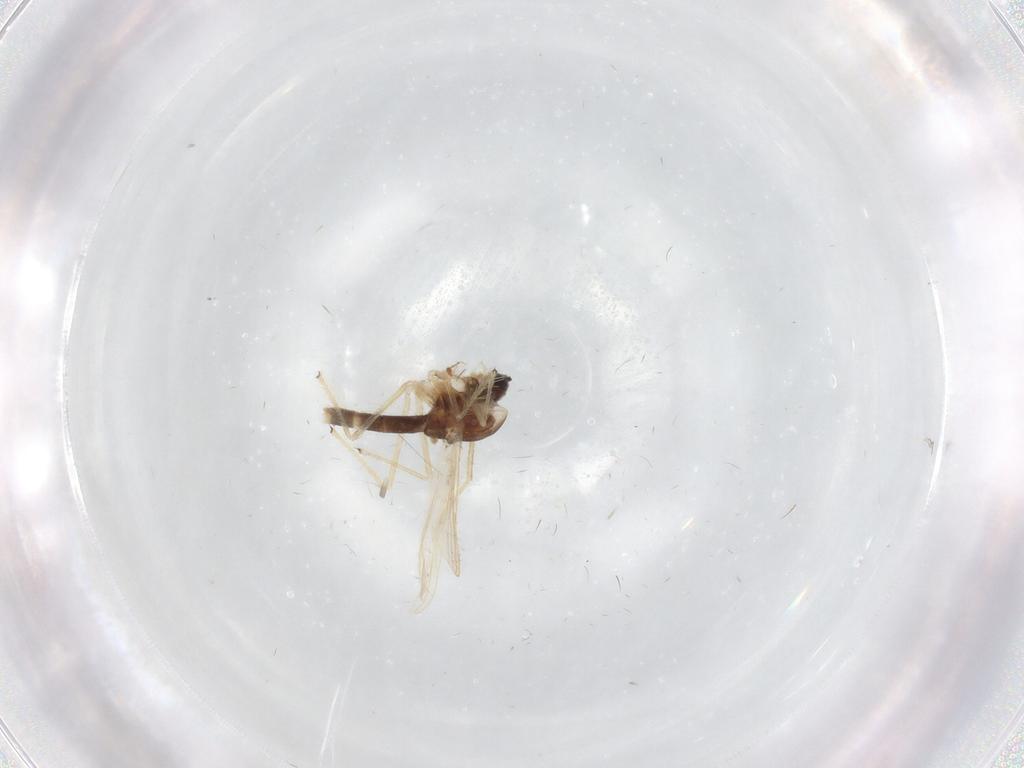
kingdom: Animalia
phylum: Arthropoda
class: Insecta
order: Diptera
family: Chironomidae
